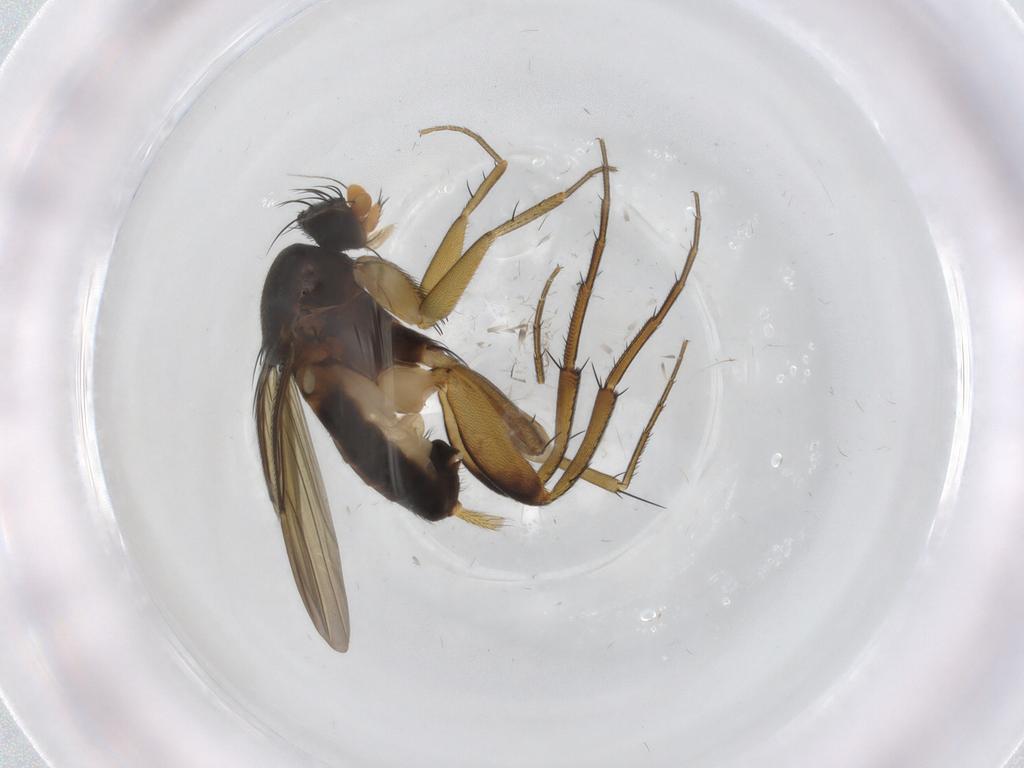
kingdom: Animalia
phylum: Arthropoda
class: Insecta
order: Diptera
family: Phoridae
